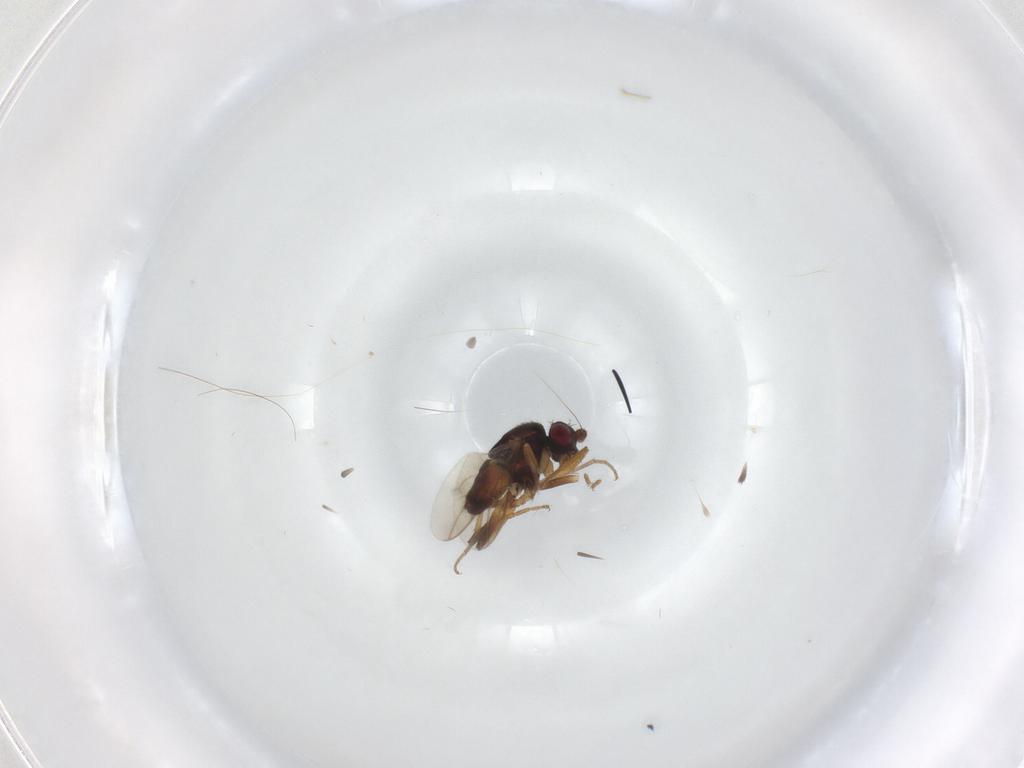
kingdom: Animalia
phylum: Arthropoda
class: Insecta
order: Diptera
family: Sphaeroceridae
